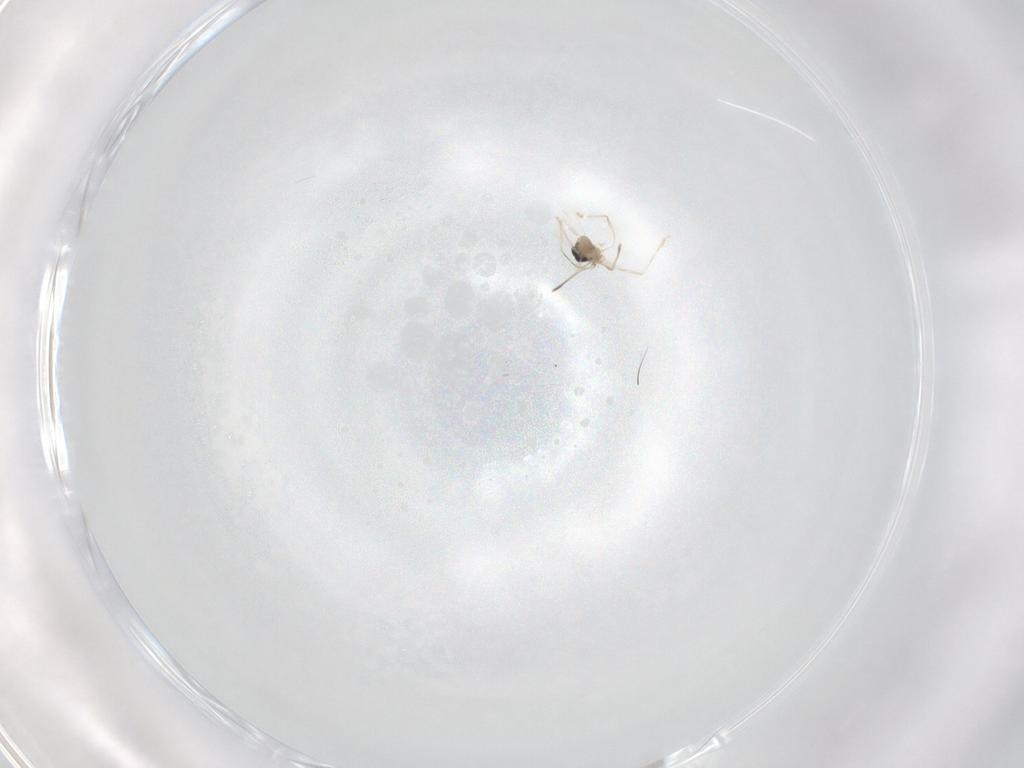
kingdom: Animalia
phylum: Arthropoda
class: Insecta
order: Diptera
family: Cecidomyiidae
